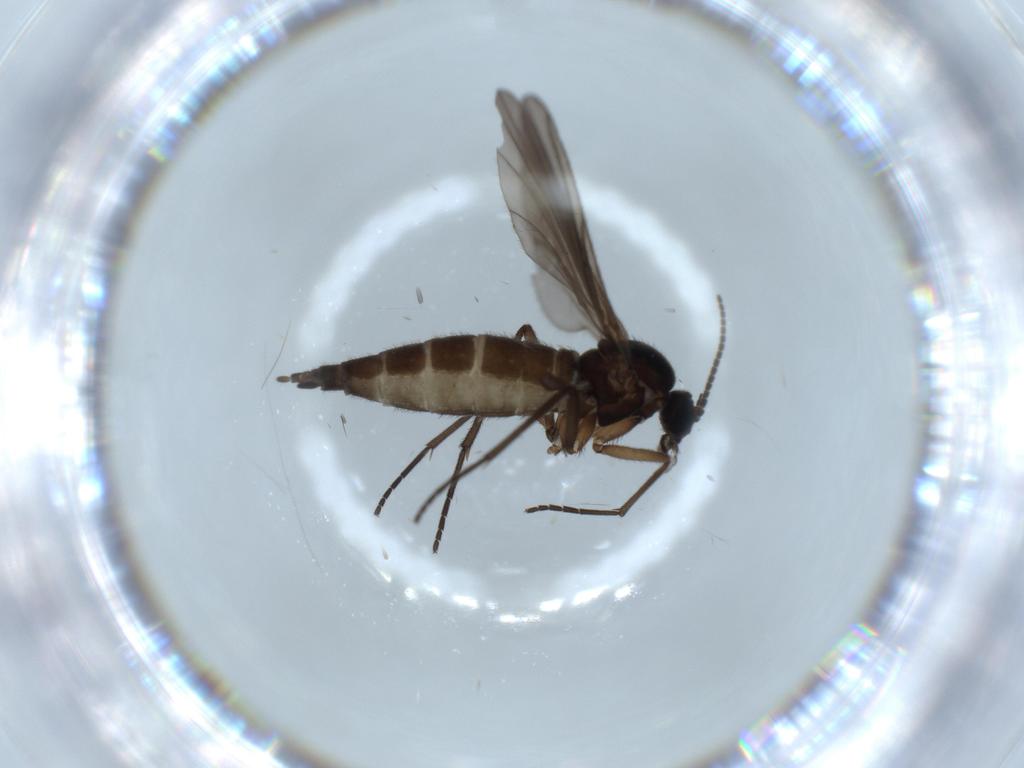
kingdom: Animalia
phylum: Arthropoda
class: Insecta
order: Diptera
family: Sciaridae
